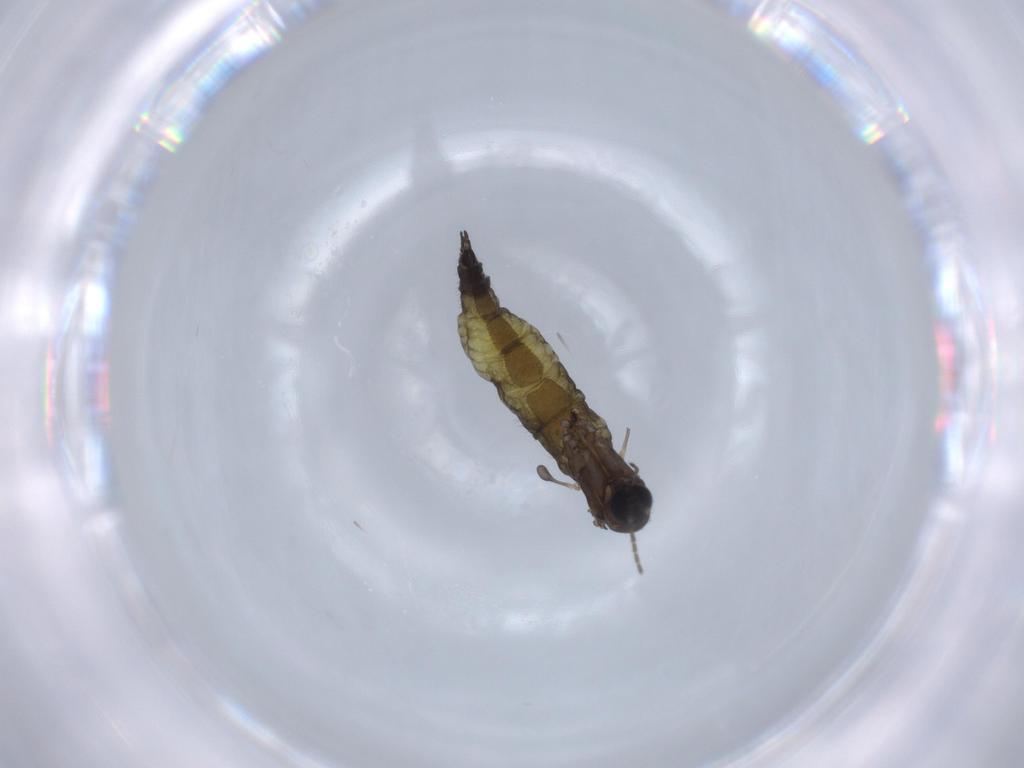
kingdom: Animalia
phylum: Arthropoda
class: Insecta
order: Diptera
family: Sciaridae
